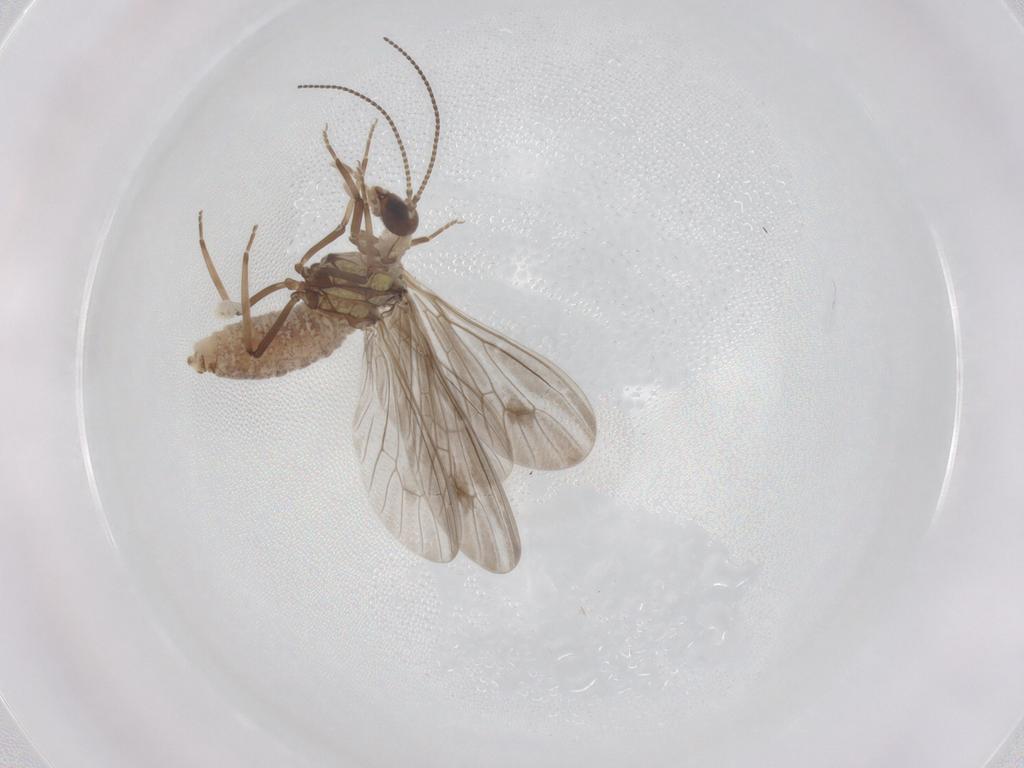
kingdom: Animalia
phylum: Arthropoda
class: Insecta
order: Neuroptera
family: Coniopterygidae
